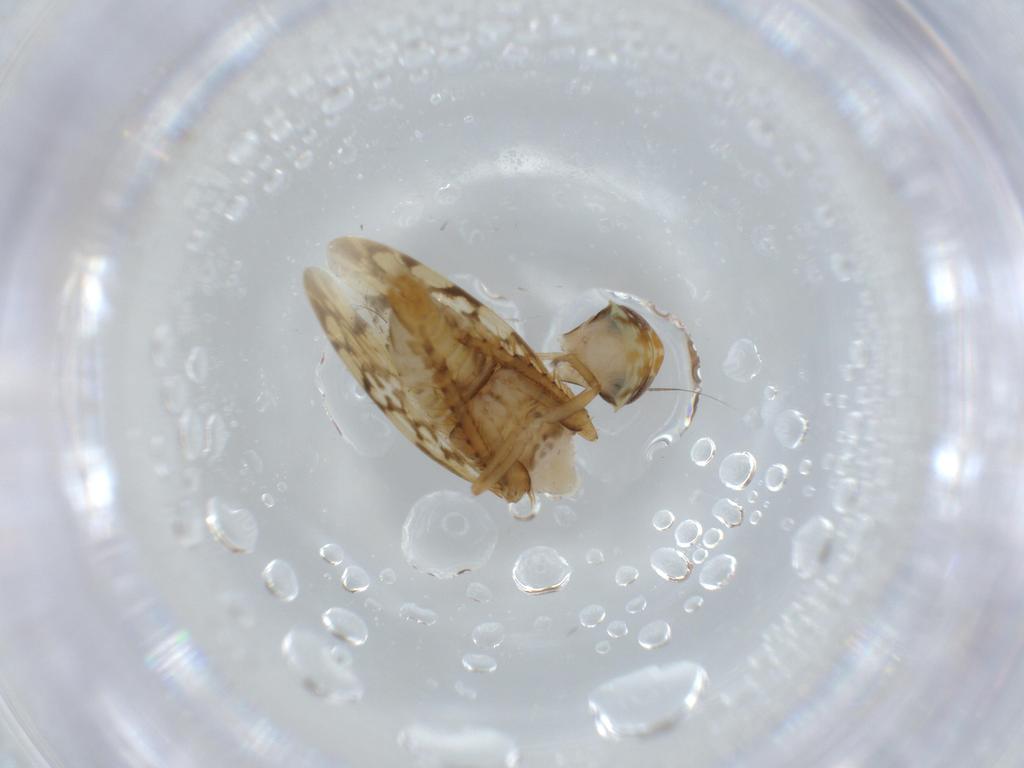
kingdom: Animalia
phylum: Arthropoda
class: Insecta
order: Hemiptera
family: Cicadellidae
